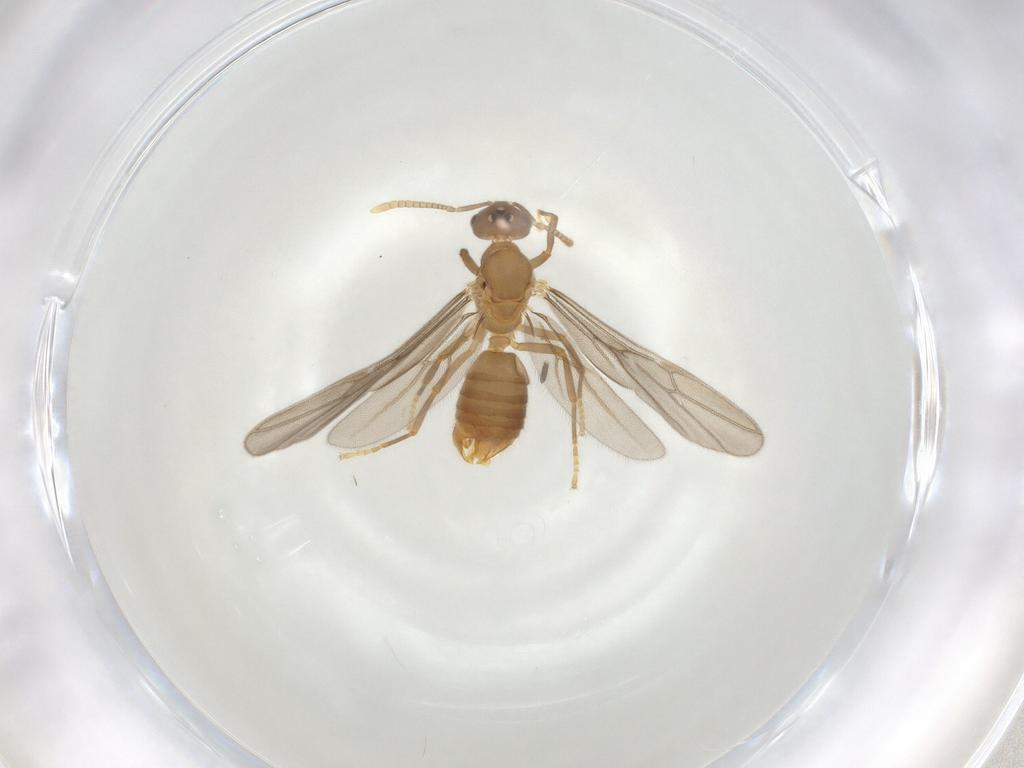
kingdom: Animalia
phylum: Arthropoda
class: Insecta
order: Hymenoptera
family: Formicidae
